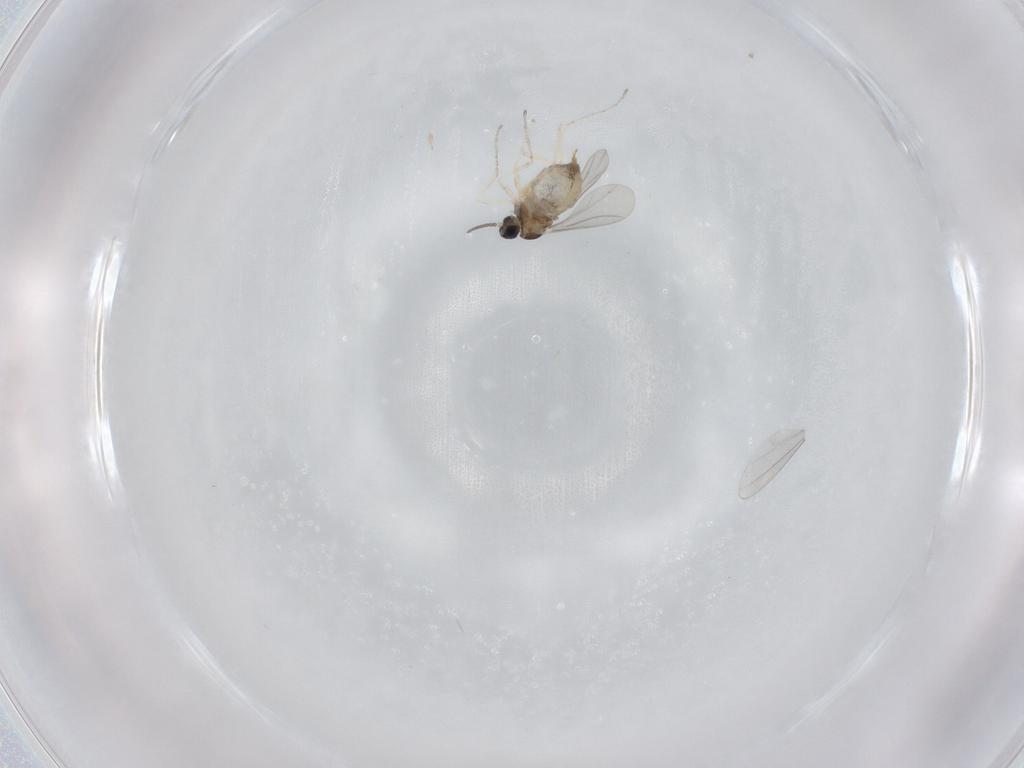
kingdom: Animalia
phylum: Arthropoda
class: Insecta
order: Diptera
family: Cecidomyiidae
